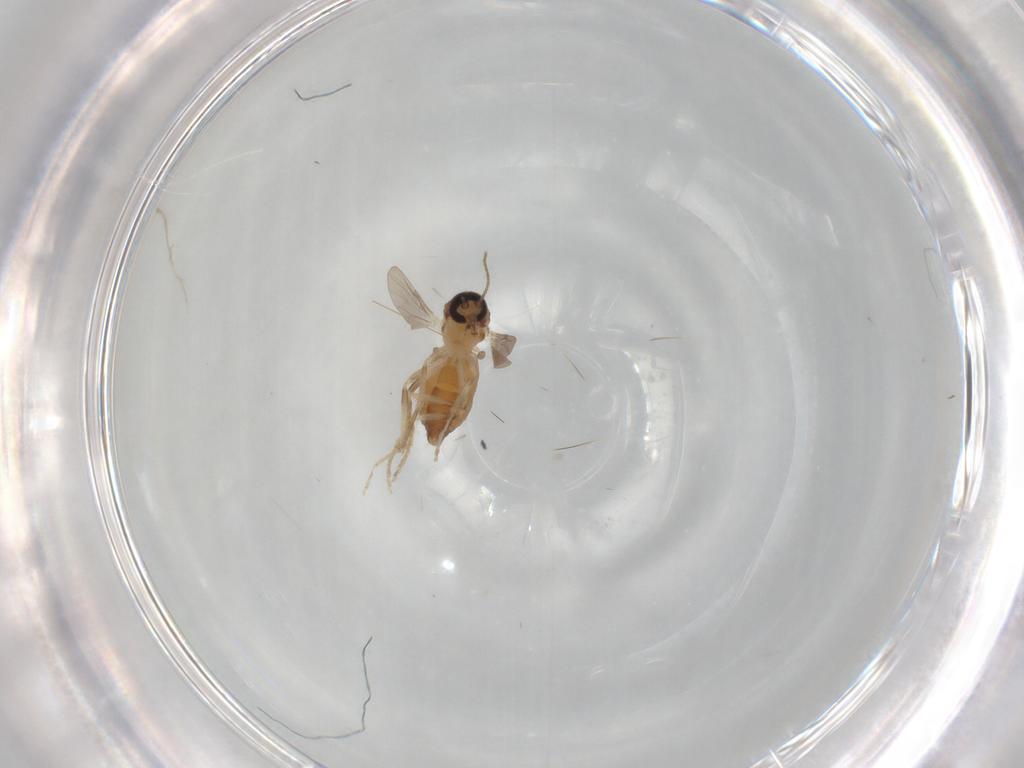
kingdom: Animalia
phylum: Arthropoda
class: Insecta
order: Diptera
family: Ceratopogonidae
